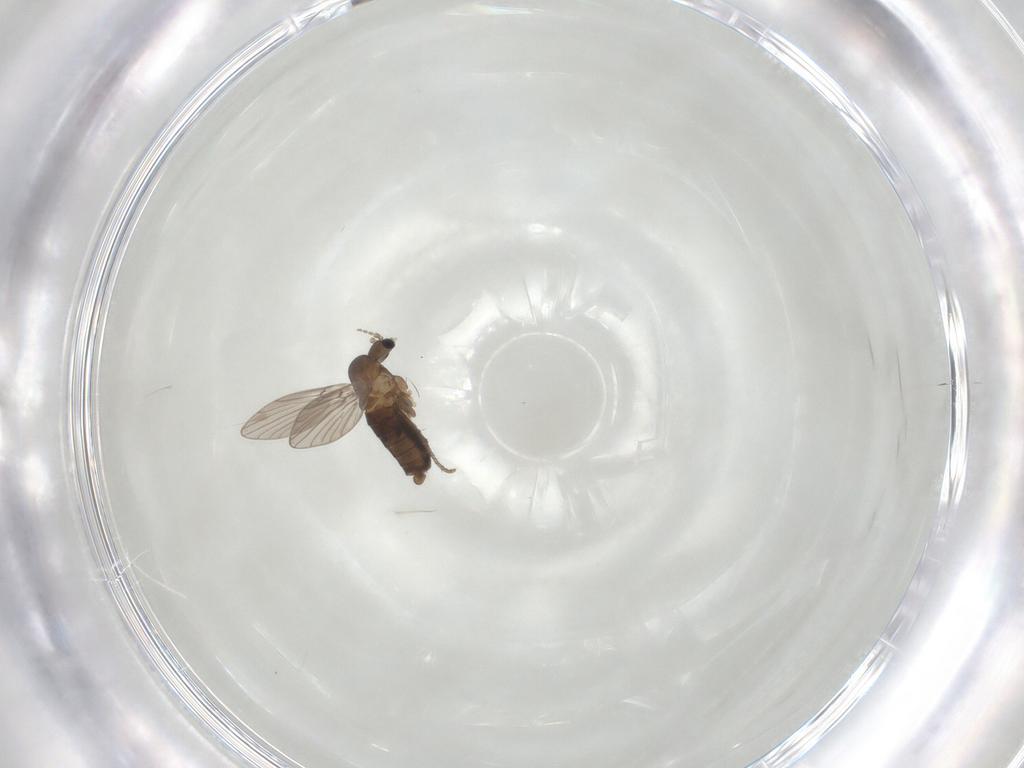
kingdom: Animalia
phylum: Arthropoda
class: Insecta
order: Diptera
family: Psychodidae
